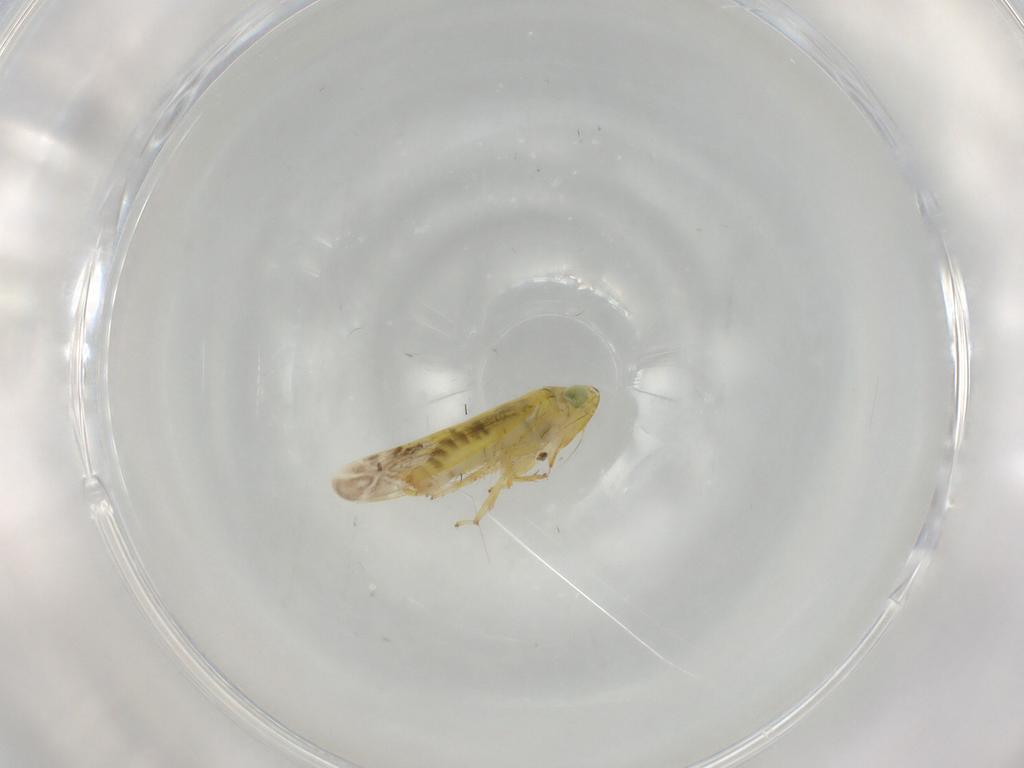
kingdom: Animalia
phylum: Arthropoda
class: Insecta
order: Hemiptera
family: Cicadellidae
